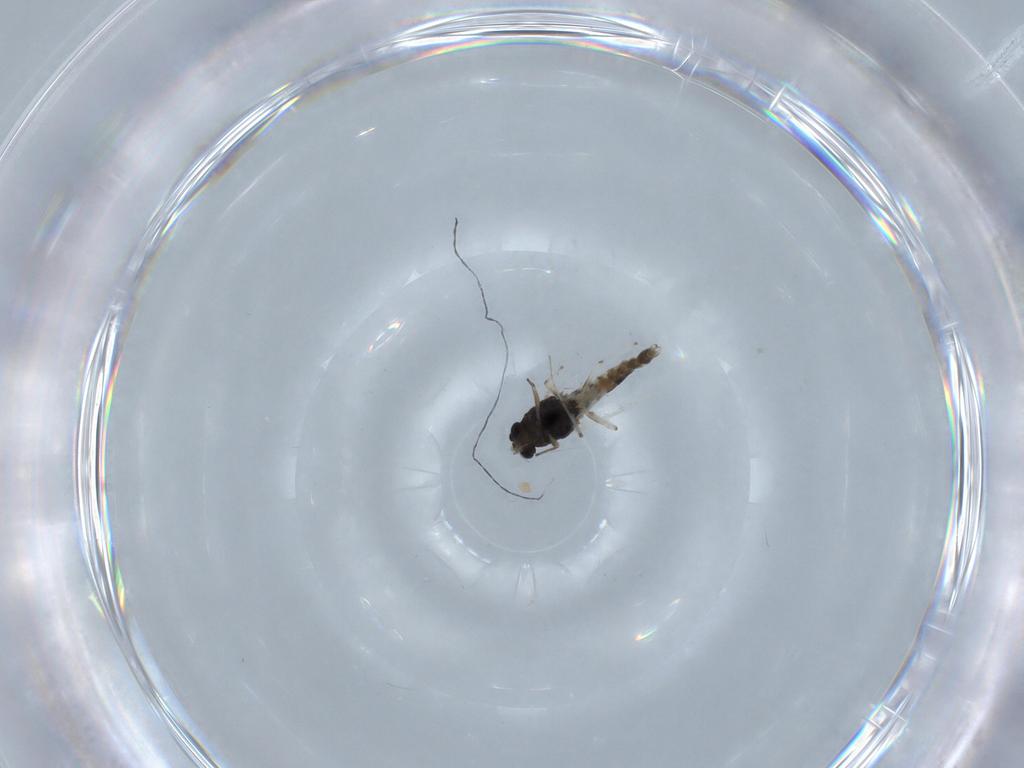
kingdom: Animalia
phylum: Arthropoda
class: Insecta
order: Diptera
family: Chironomidae
